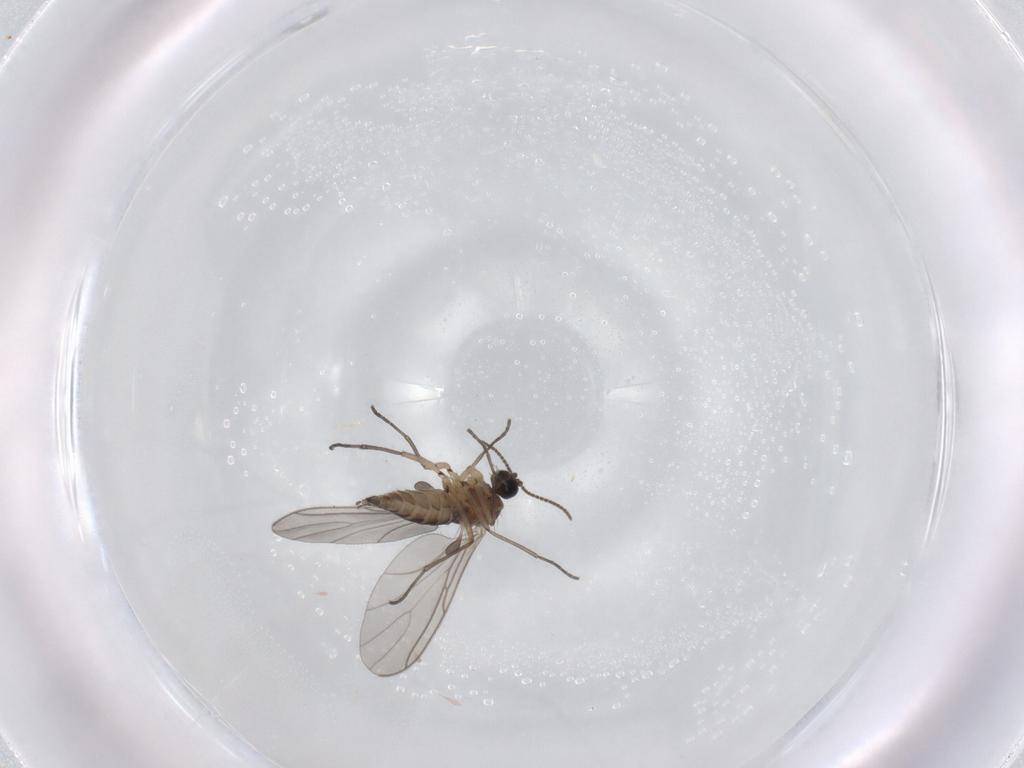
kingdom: Animalia
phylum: Arthropoda
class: Insecta
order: Diptera
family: Sciaridae
